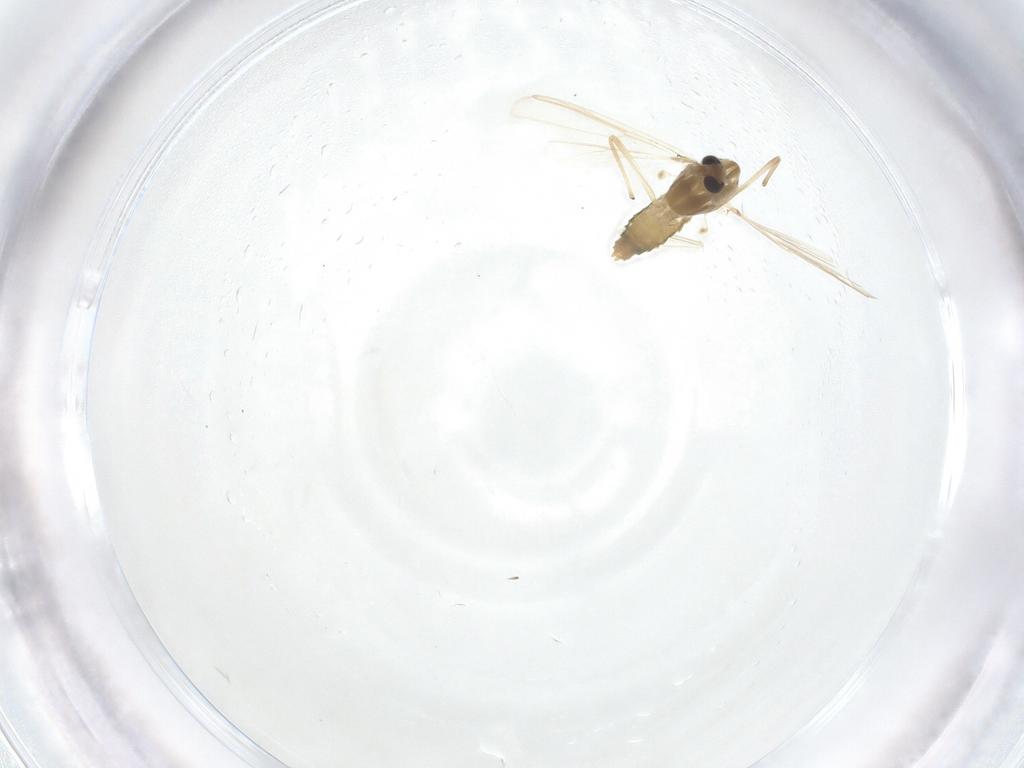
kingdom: Animalia
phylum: Arthropoda
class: Insecta
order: Diptera
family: Chironomidae
